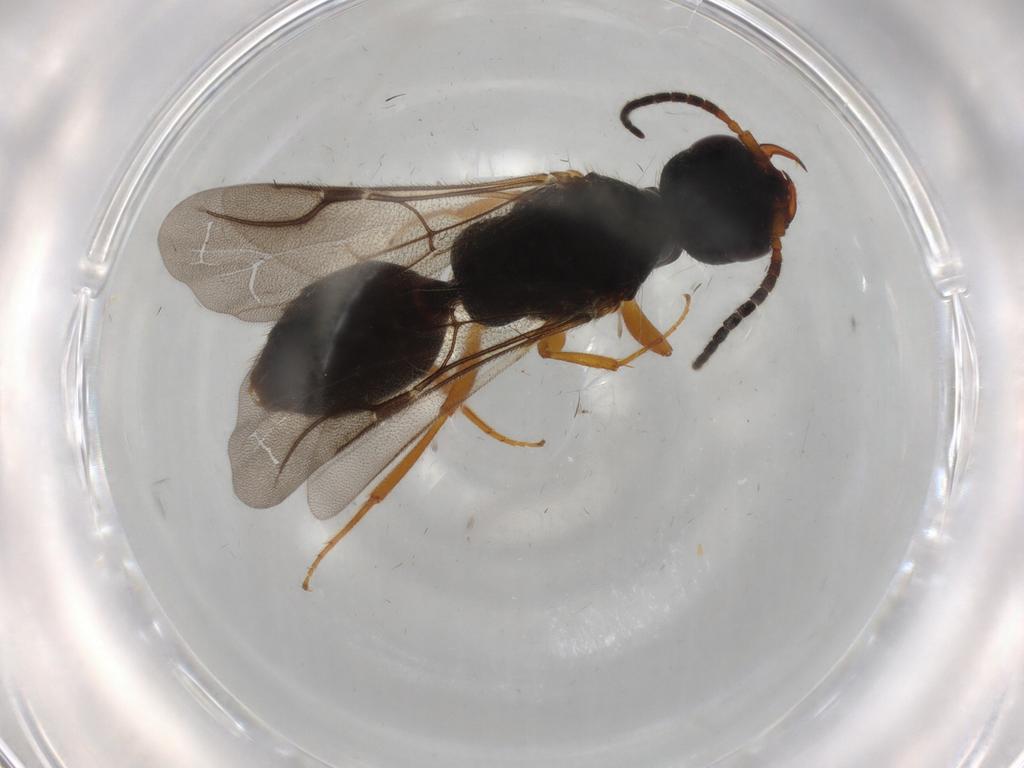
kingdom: Animalia
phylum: Arthropoda
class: Insecta
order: Hymenoptera
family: Bethylidae
